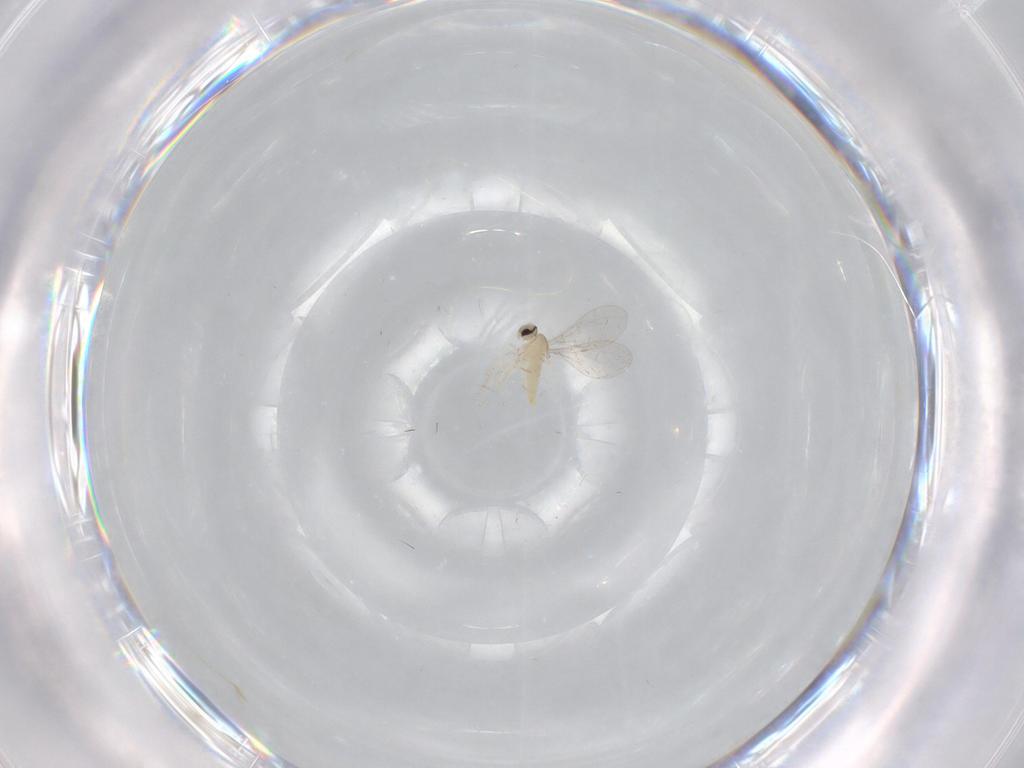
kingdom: Animalia
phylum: Arthropoda
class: Insecta
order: Diptera
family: Cecidomyiidae
